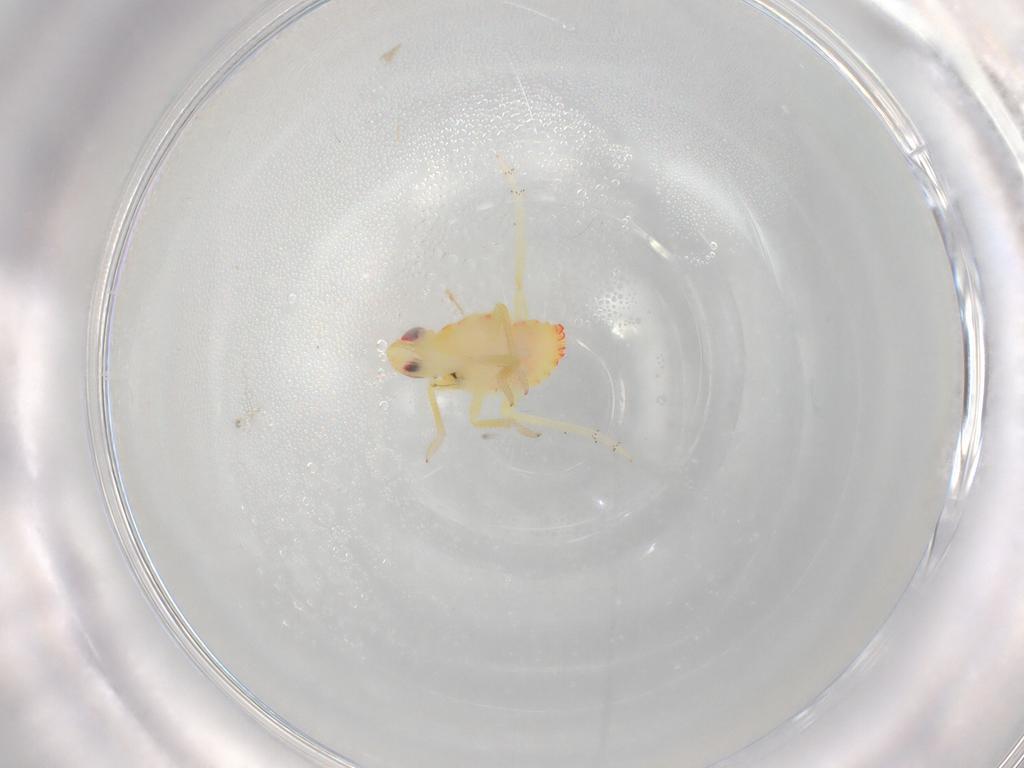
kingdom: Animalia
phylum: Arthropoda
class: Insecta
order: Hemiptera
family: Tropiduchidae
